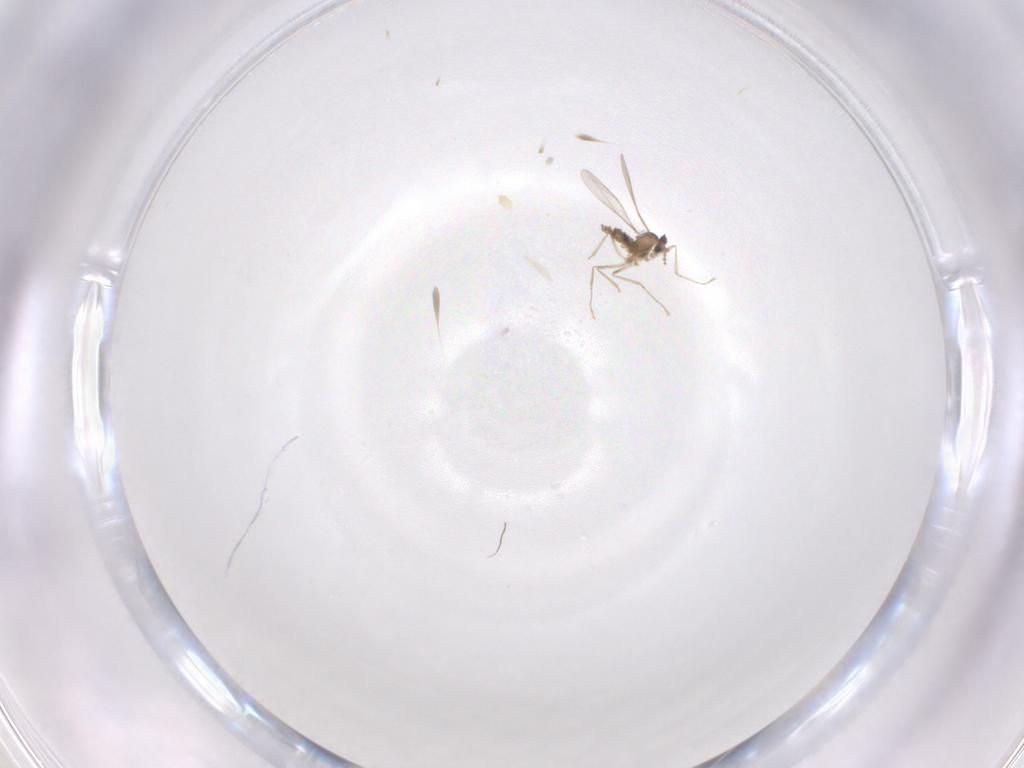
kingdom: Animalia
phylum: Arthropoda
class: Insecta
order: Diptera
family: Cecidomyiidae
